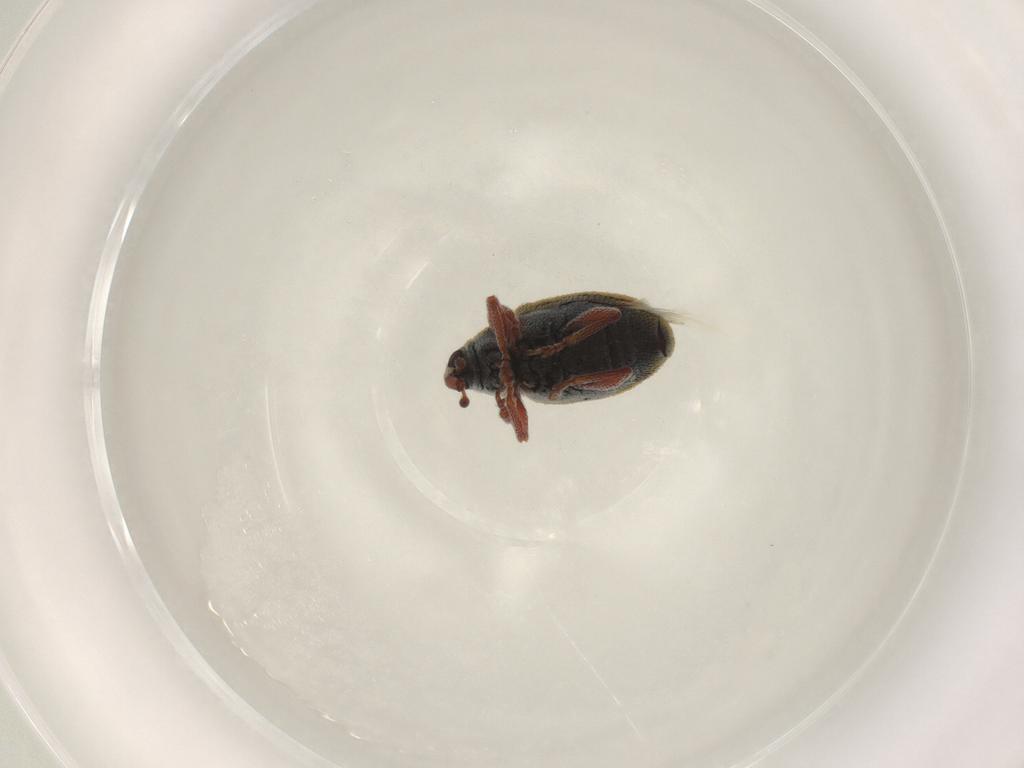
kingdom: Animalia
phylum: Arthropoda
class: Insecta
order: Coleoptera
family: Curculionidae
